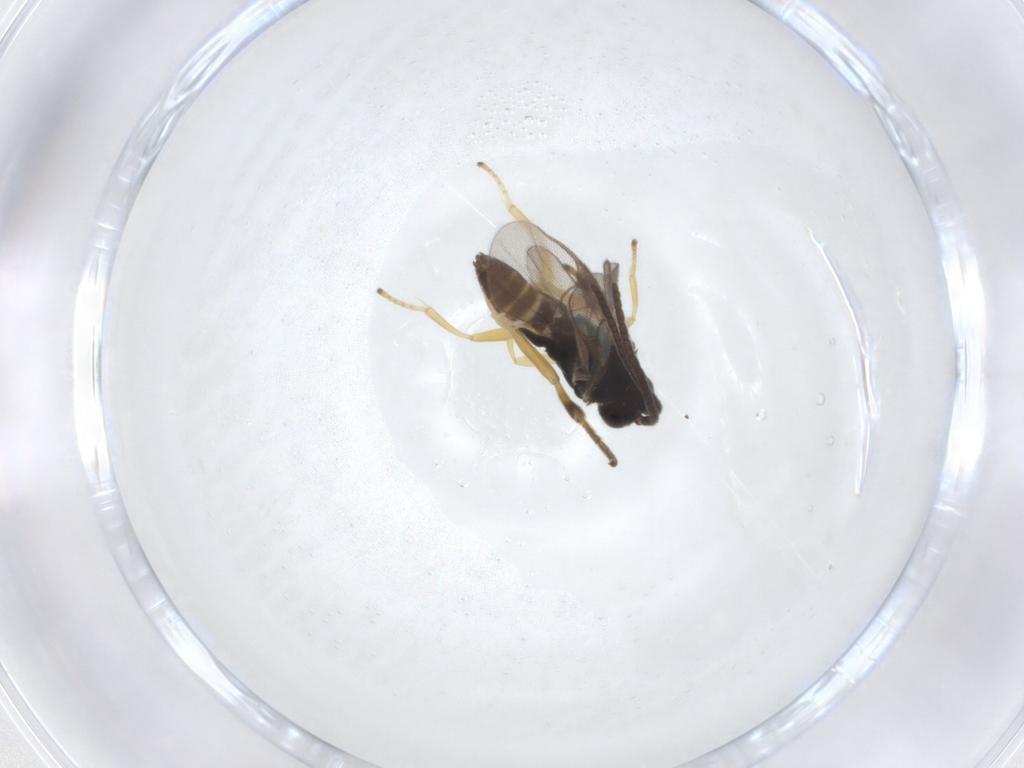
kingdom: Animalia
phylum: Arthropoda
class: Insecta
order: Hymenoptera
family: Braconidae
